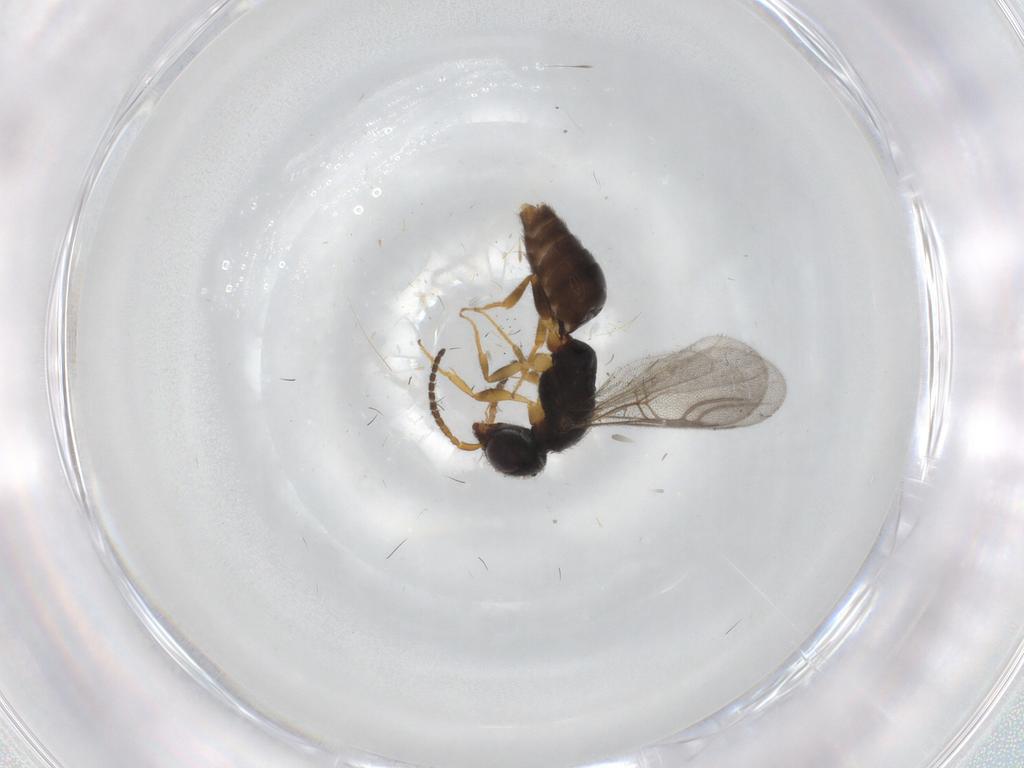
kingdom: Animalia
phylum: Arthropoda
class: Insecta
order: Hymenoptera
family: Bethylidae
